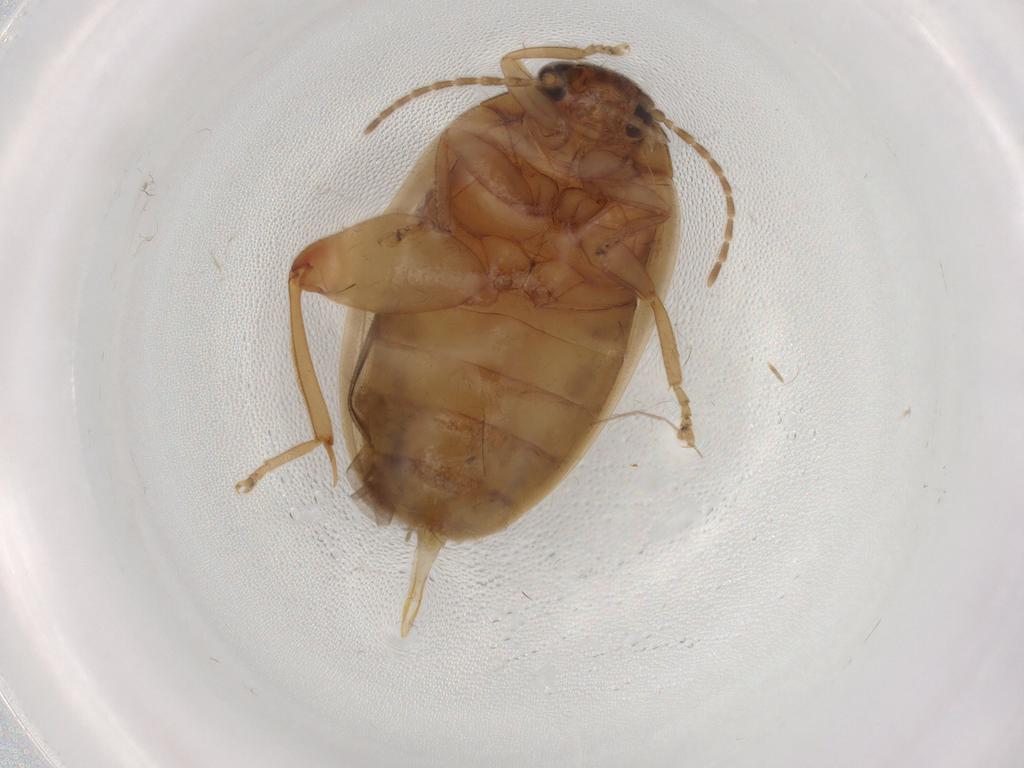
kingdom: Animalia
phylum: Arthropoda
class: Insecta
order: Coleoptera
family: Scirtidae
